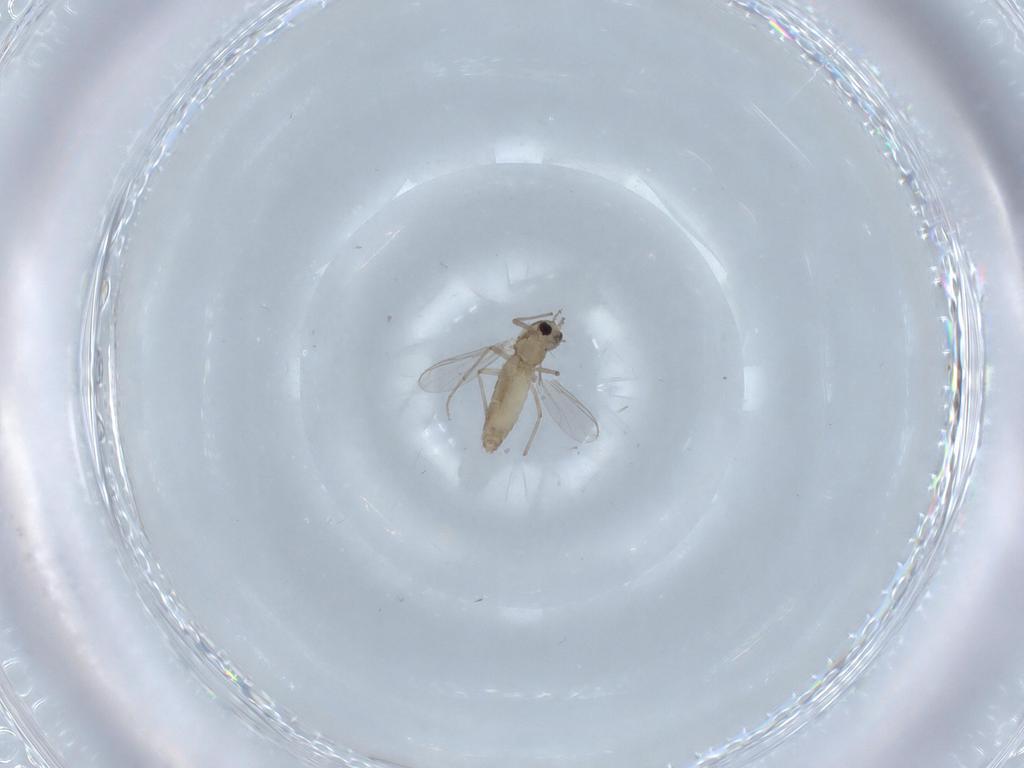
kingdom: Animalia
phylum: Arthropoda
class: Insecta
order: Diptera
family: Chironomidae
